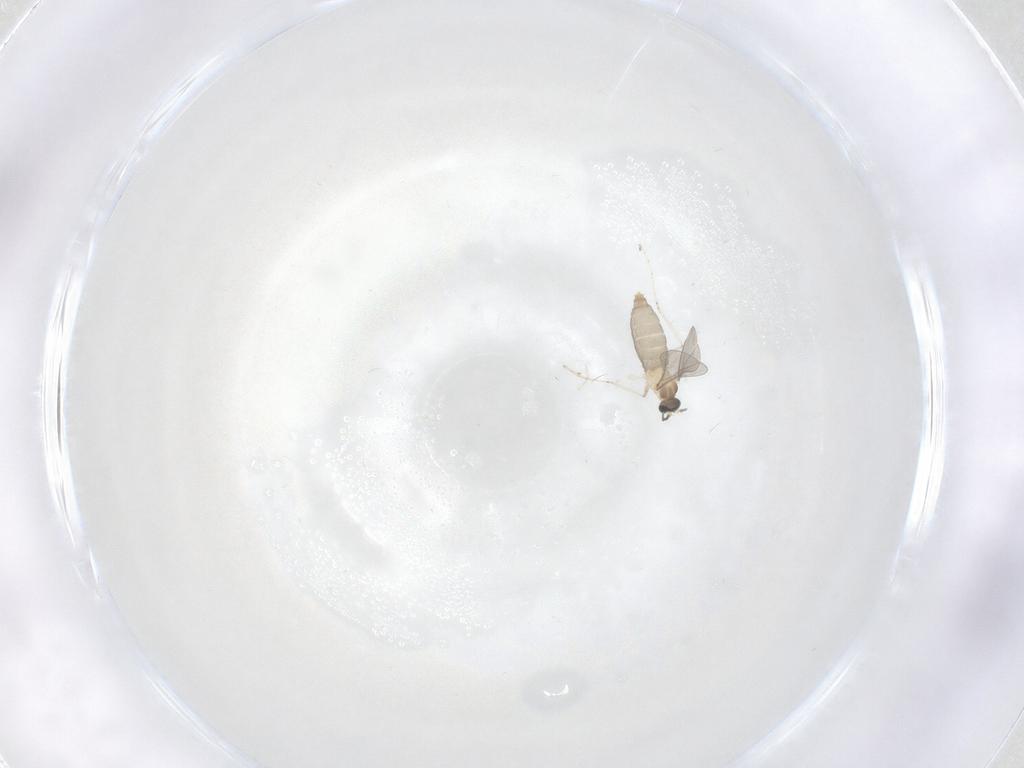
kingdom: Animalia
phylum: Arthropoda
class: Insecta
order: Diptera
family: Cecidomyiidae
